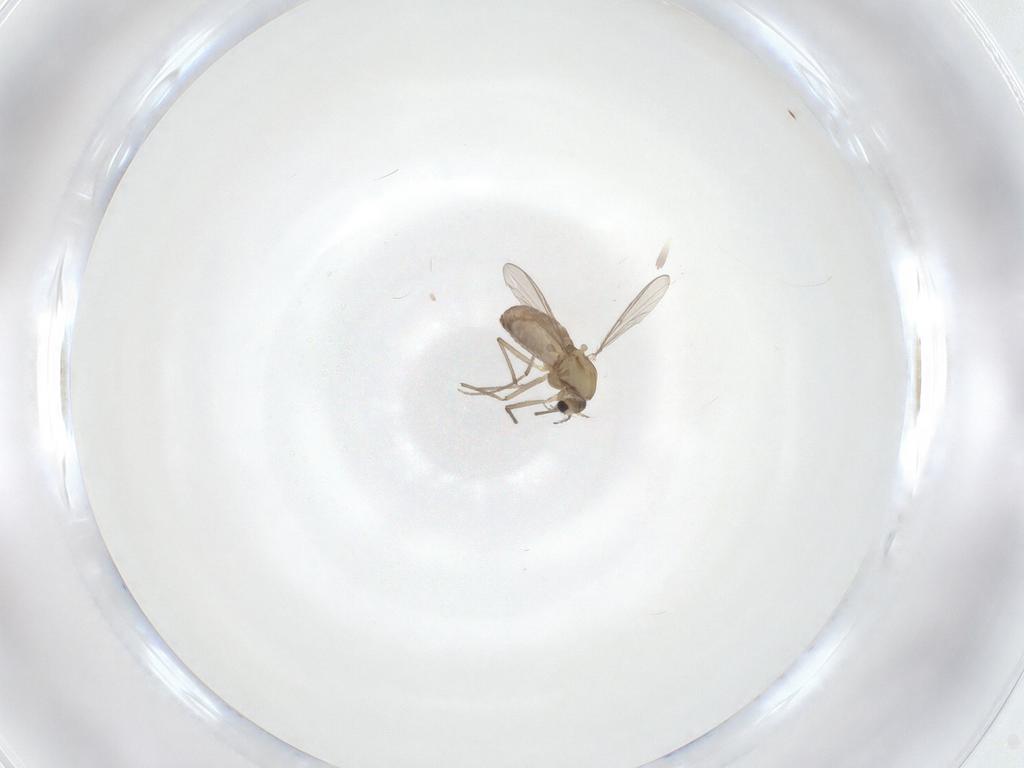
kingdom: Animalia
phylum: Arthropoda
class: Insecta
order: Diptera
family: Chironomidae
